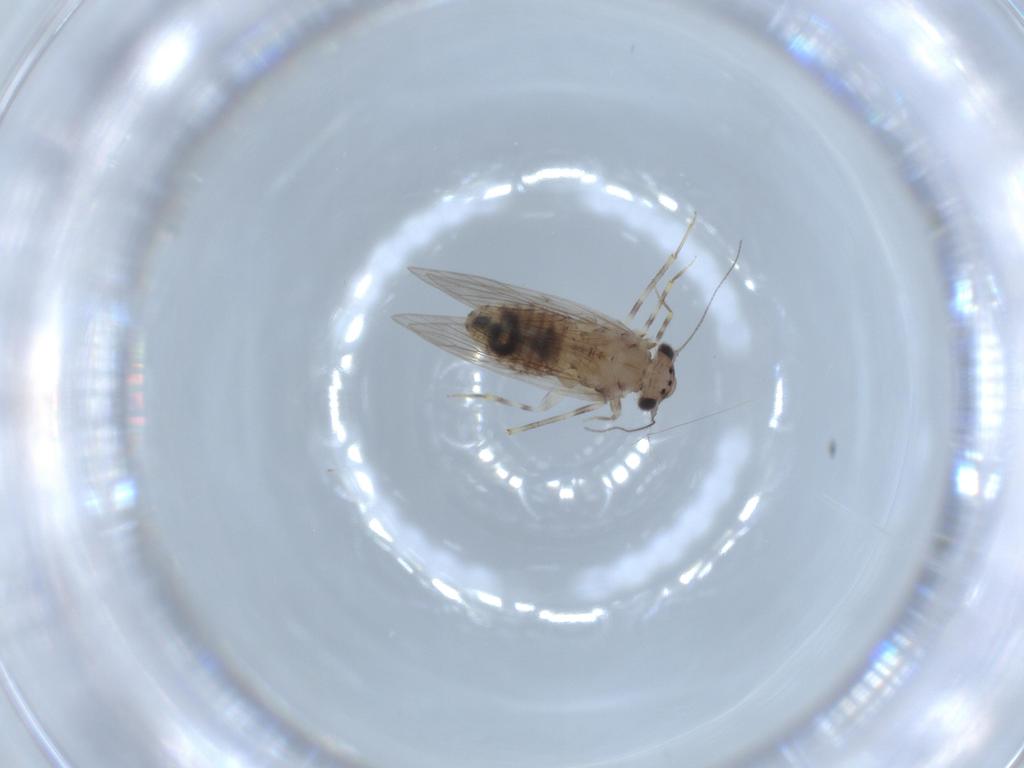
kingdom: Animalia
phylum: Arthropoda
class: Insecta
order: Psocodea
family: Lepidopsocidae
